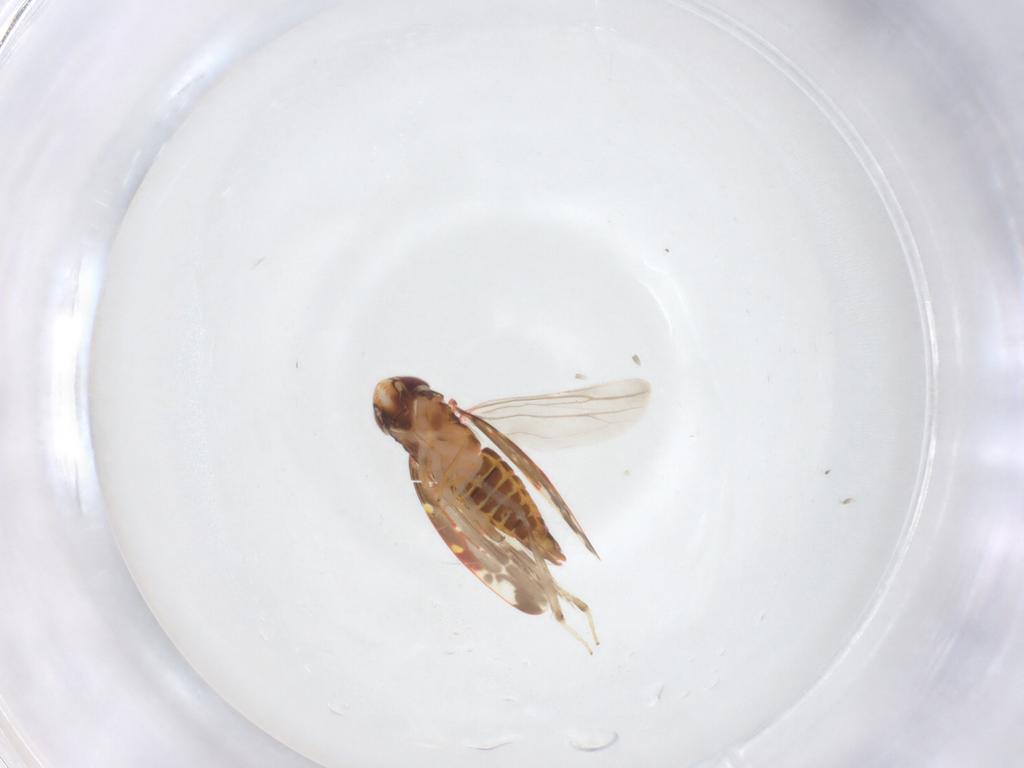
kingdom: Animalia
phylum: Arthropoda
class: Insecta
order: Hemiptera
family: Cicadellidae
